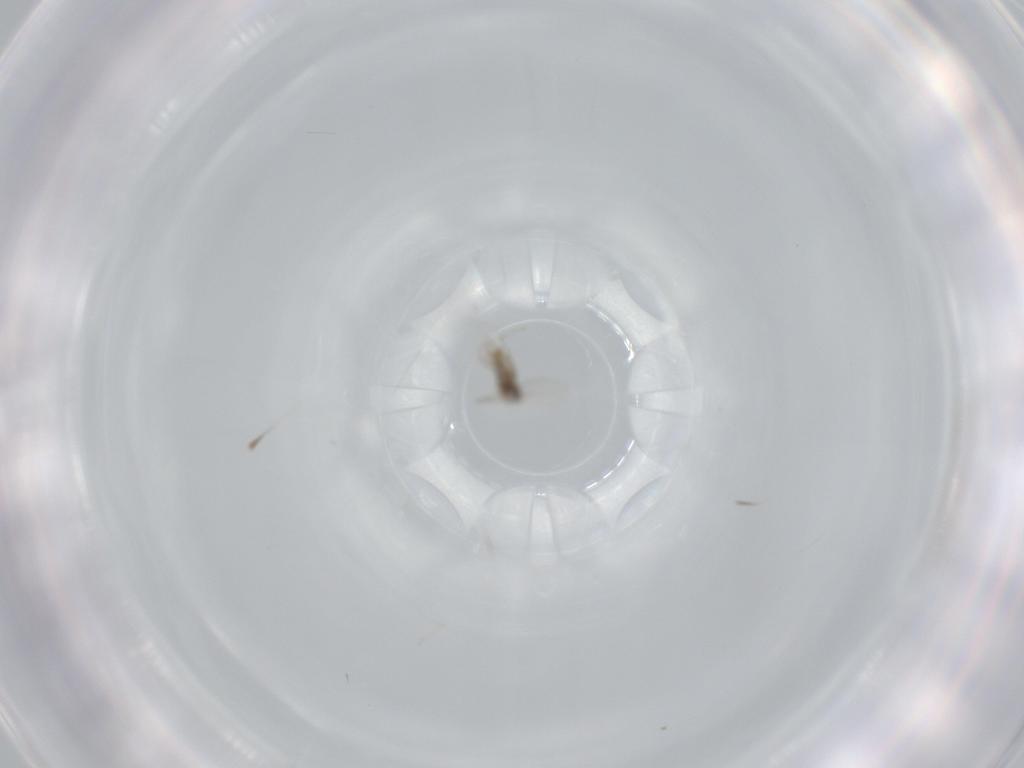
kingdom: Animalia
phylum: Arthropoda
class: Insecta
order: Diptera
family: Cecidomyiidae
